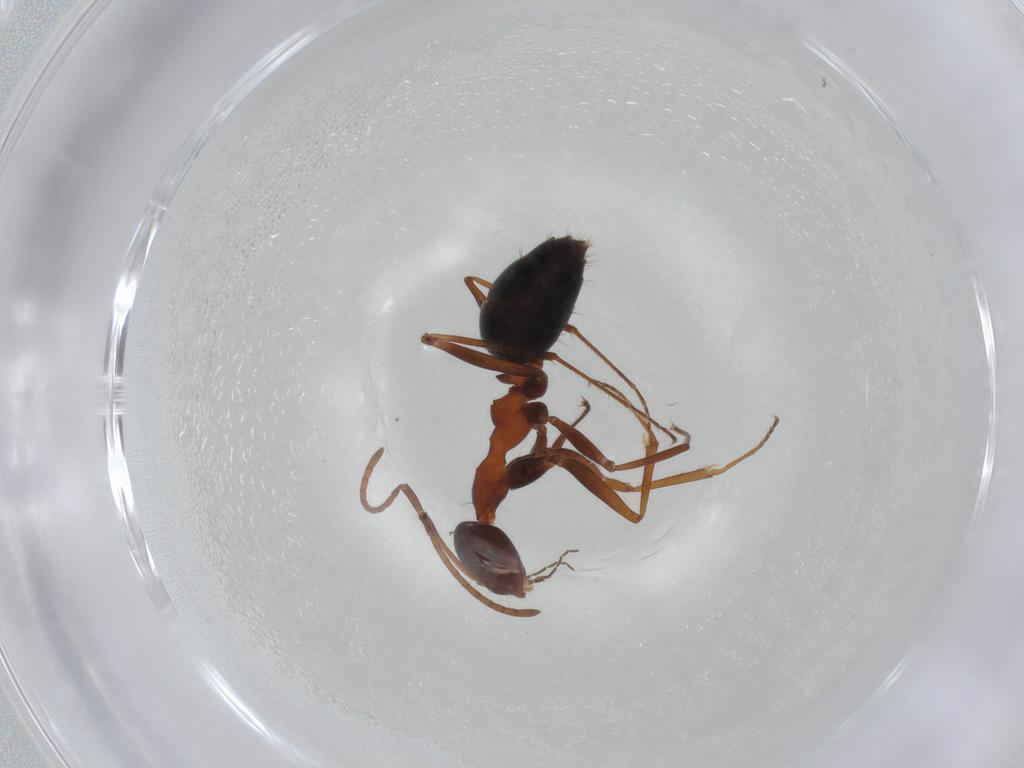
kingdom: Animalia
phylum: Arthropoda
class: Insecta
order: Hymenoptera
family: Formicidae
